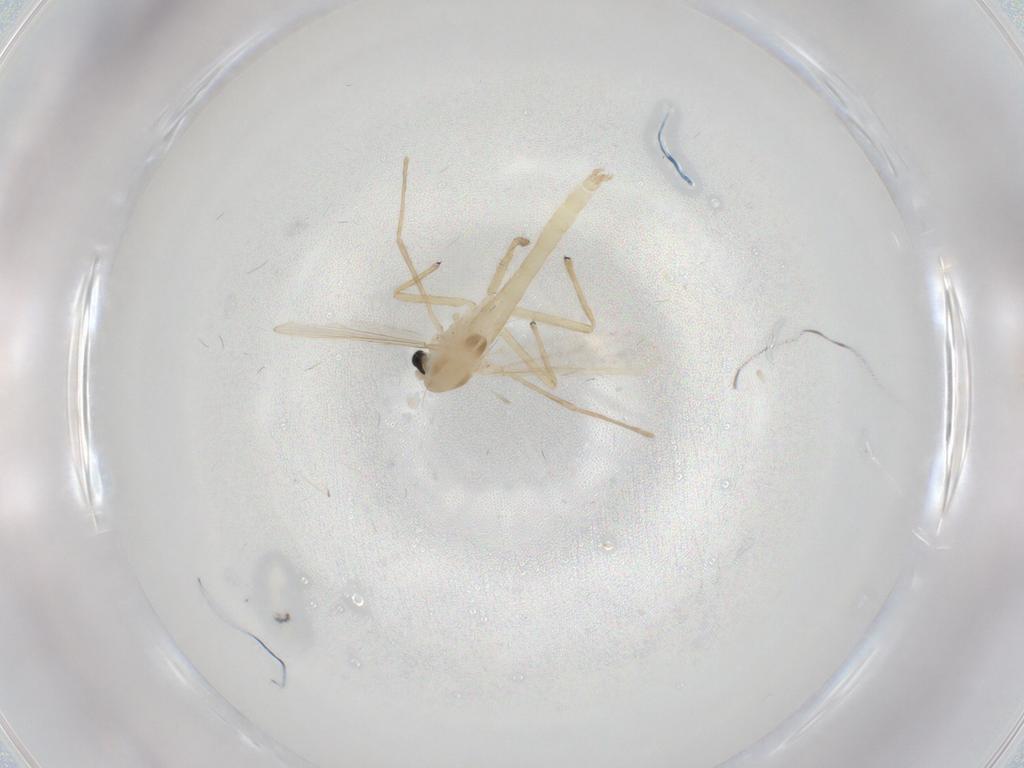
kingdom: Animalia
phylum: Arthropoda
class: Insecta
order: Diptera
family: Chironomidae
